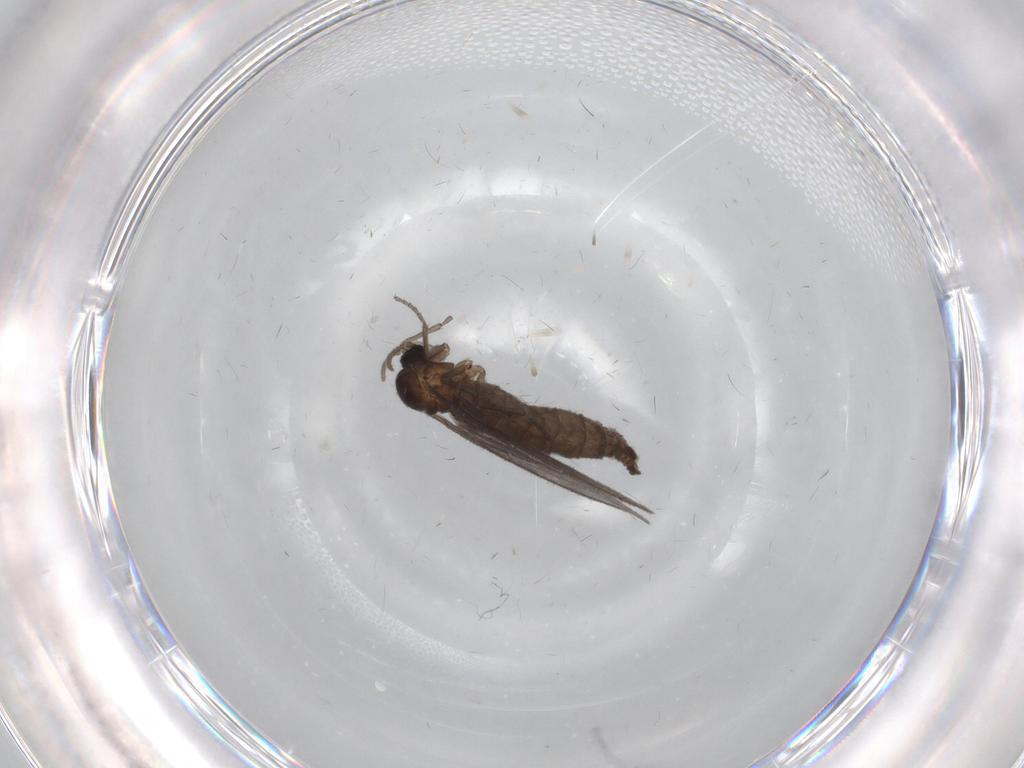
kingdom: Animalia
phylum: Arthropoda
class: Insecta
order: Diptera
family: Sciaridae
